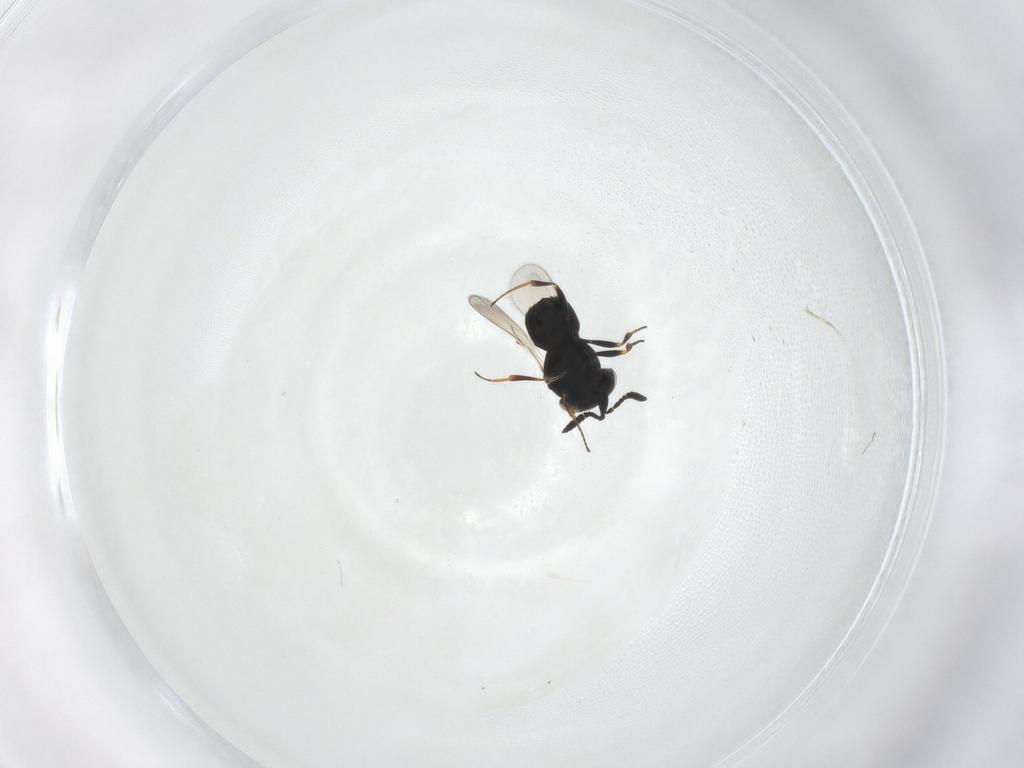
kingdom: Animalia
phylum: Arthropoda
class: Insecta
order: Hymenoptera
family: Scelionidae
